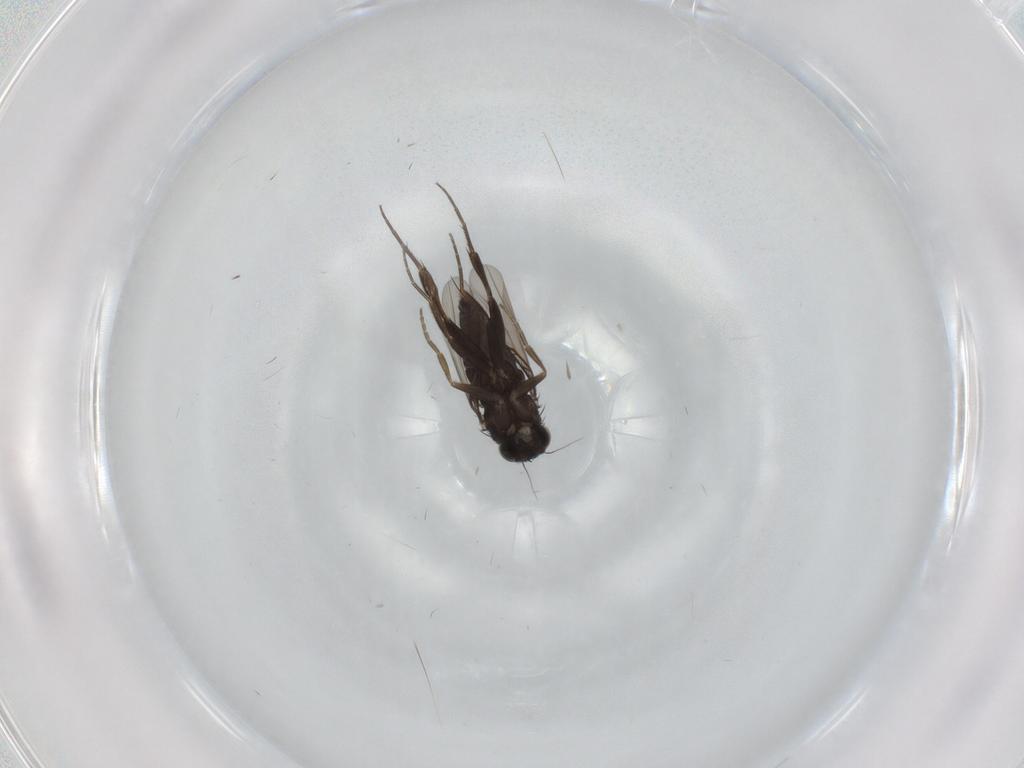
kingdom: Animalia
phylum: Arthropoda
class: Insecta
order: Diptera
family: Phoridae
